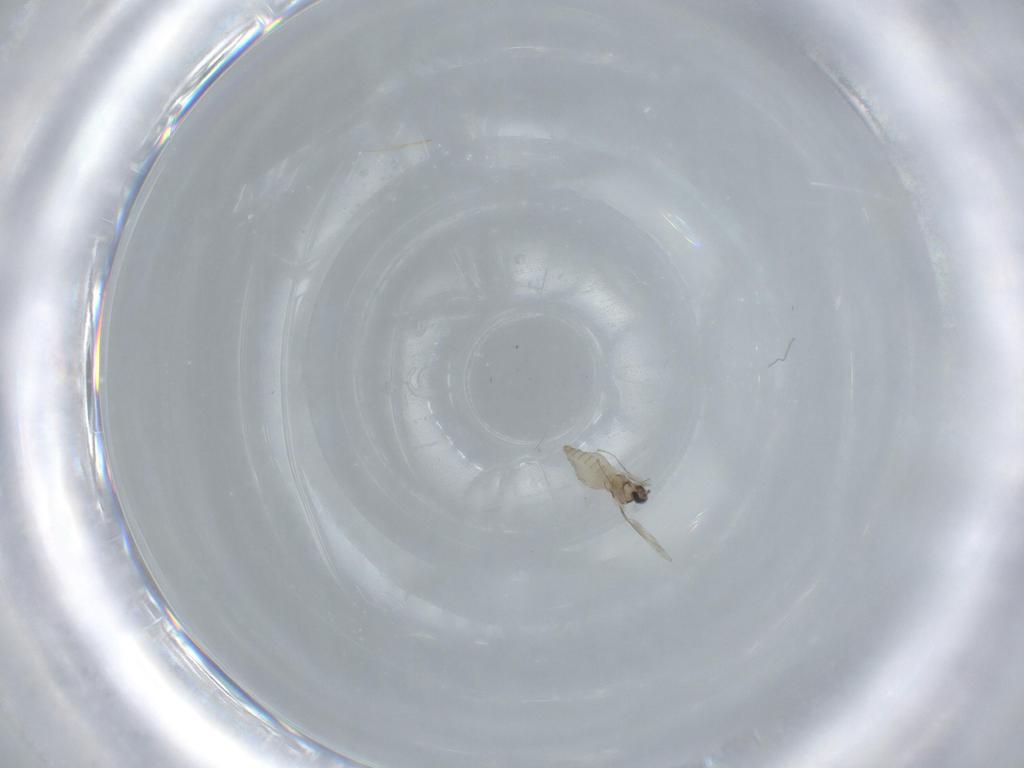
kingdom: Animalia
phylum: Arthropoda
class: Insecta
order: Diptera
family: Cecidomyiidae
